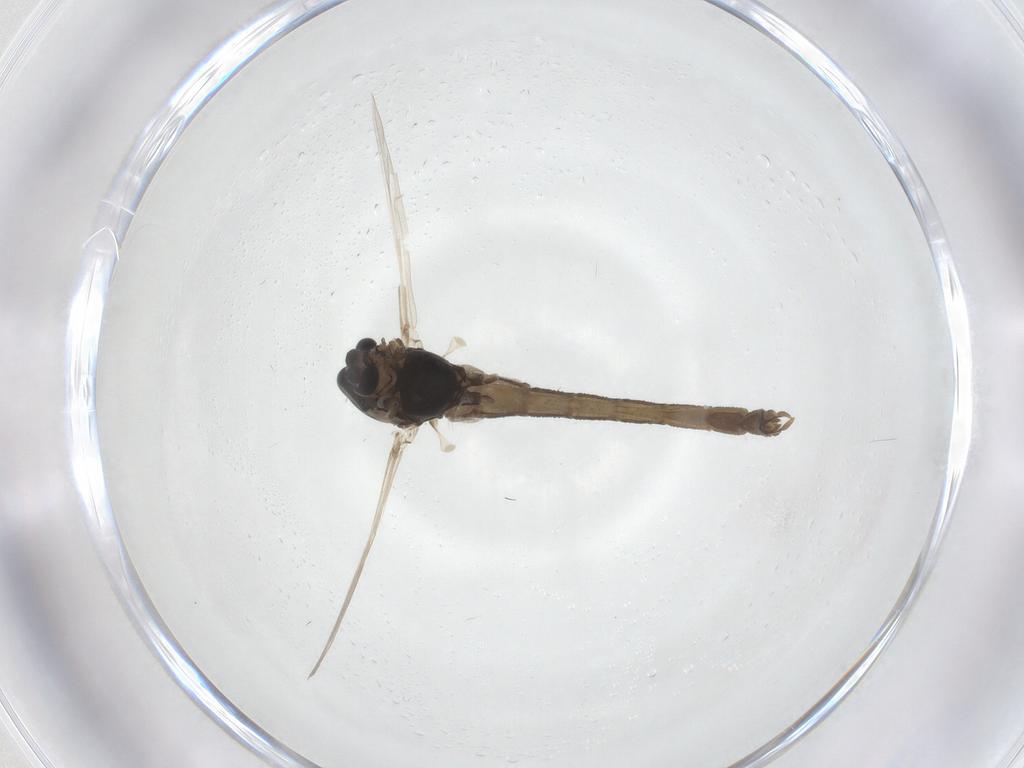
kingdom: Animalia
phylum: Arthropoda
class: Insecta
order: Diptera
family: Chironomidae
